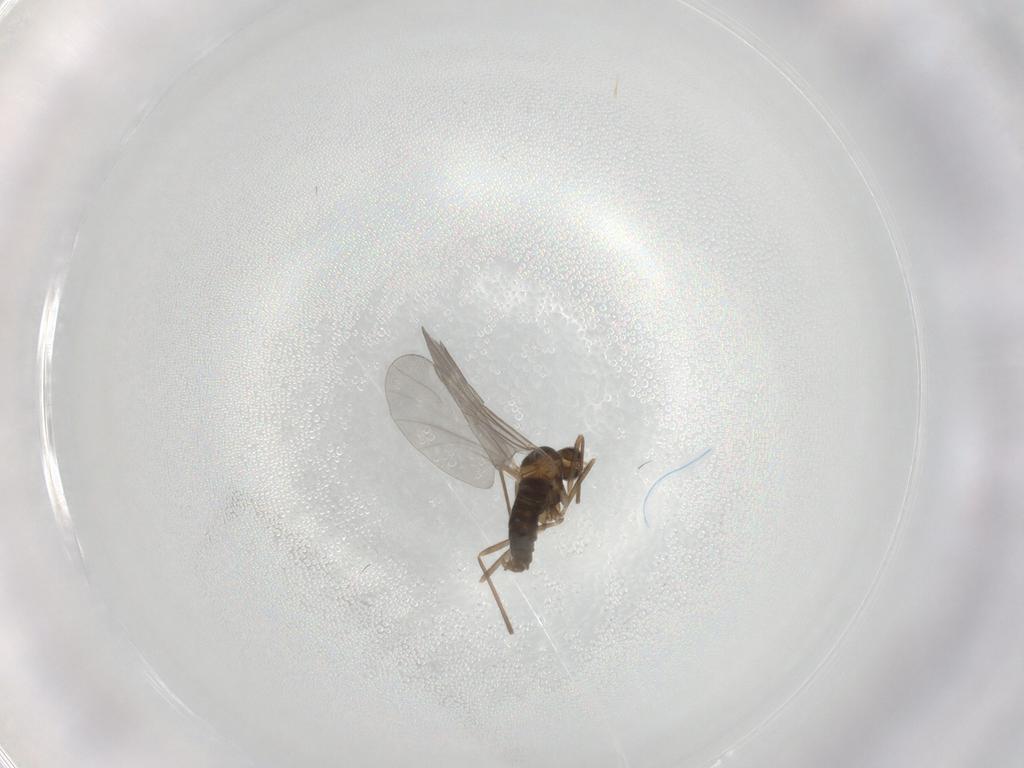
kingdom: Animalia
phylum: Arthropoda
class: Insecta
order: Diptera
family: Cecidomyiidae
